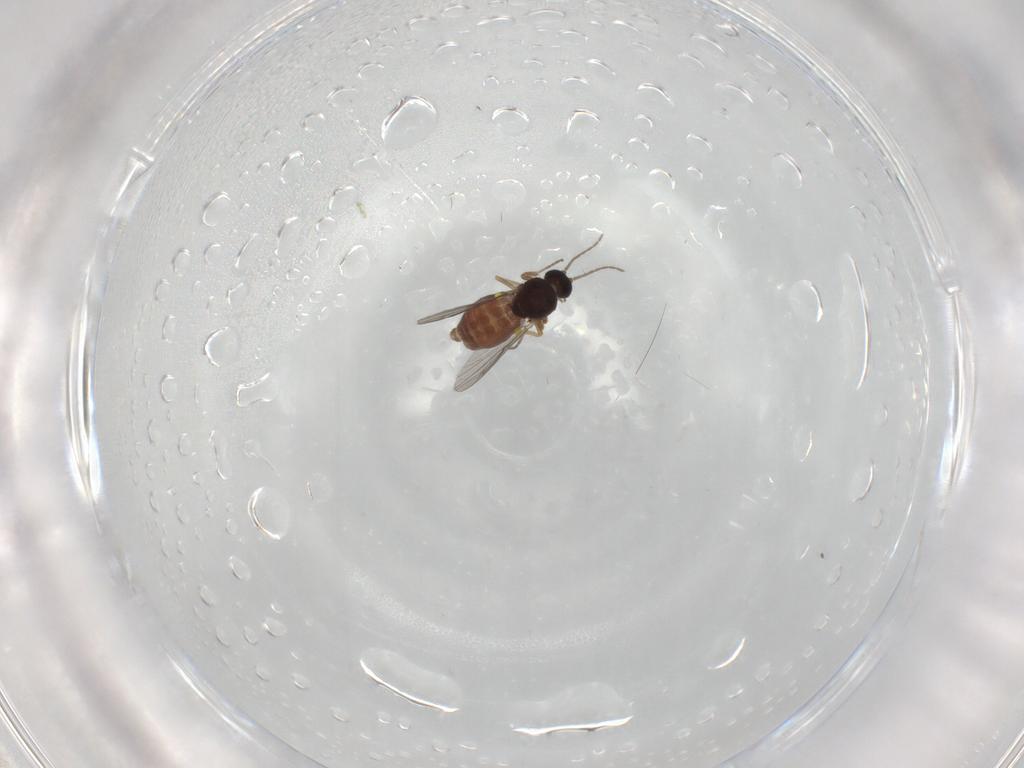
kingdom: Animalia
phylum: Arthropoda
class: Insecta
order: Diptera
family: Ceratopogonidae
